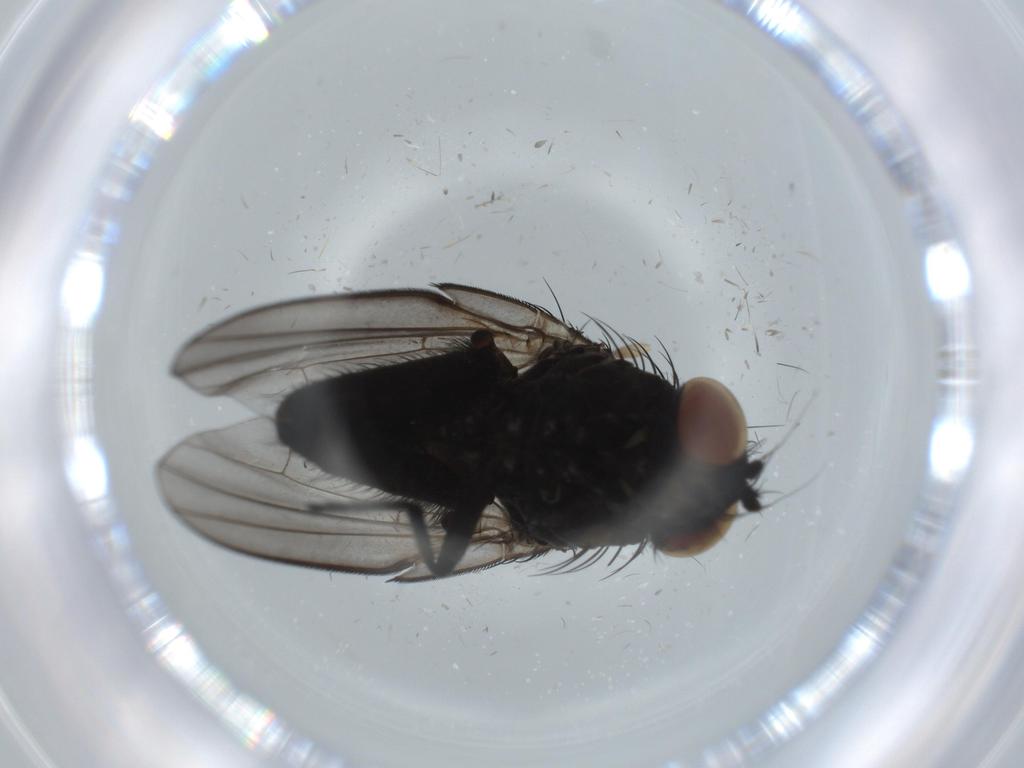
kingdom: Animalia
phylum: Arthropoda
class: Insecta
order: Diptera
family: Milichiidae
